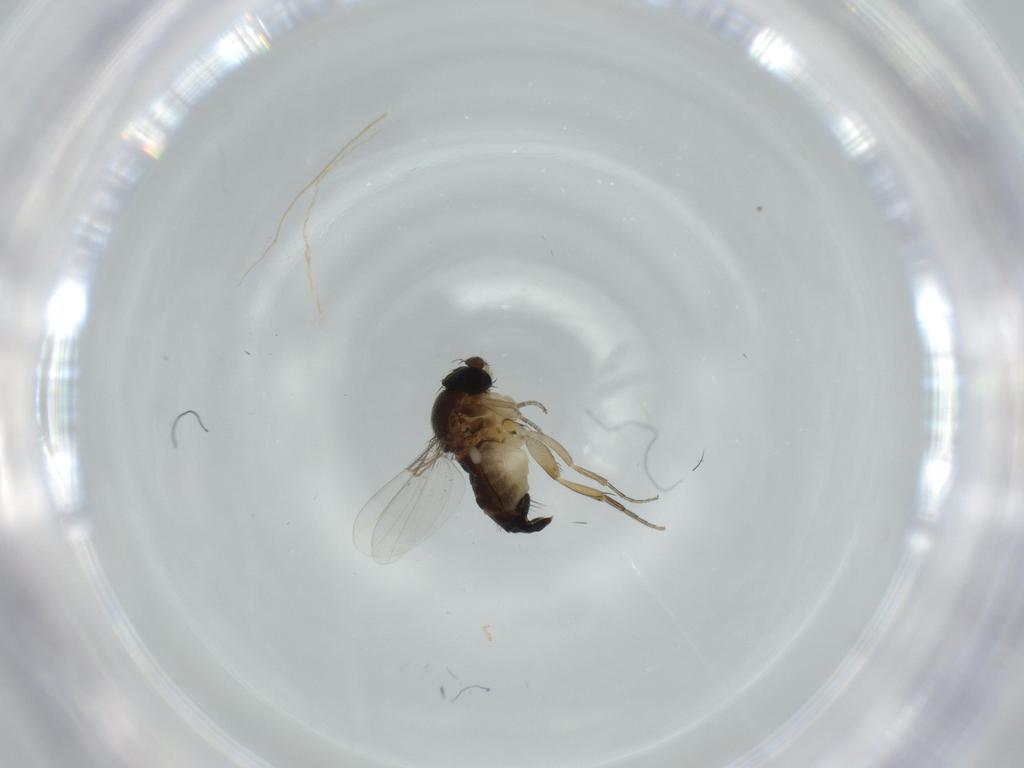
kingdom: Animalia
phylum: Arthropoda
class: Insecta
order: Diptera
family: Phoridae
